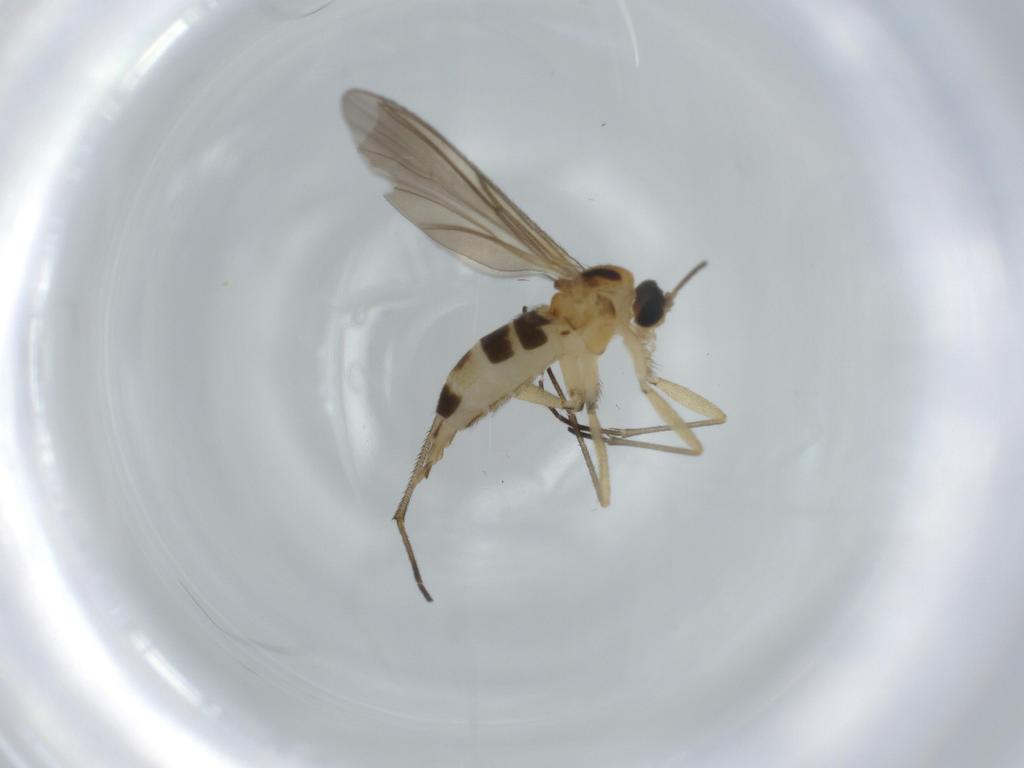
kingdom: Animalia
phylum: Arthropoda
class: Insecta
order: Diptera
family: Sciaridae
